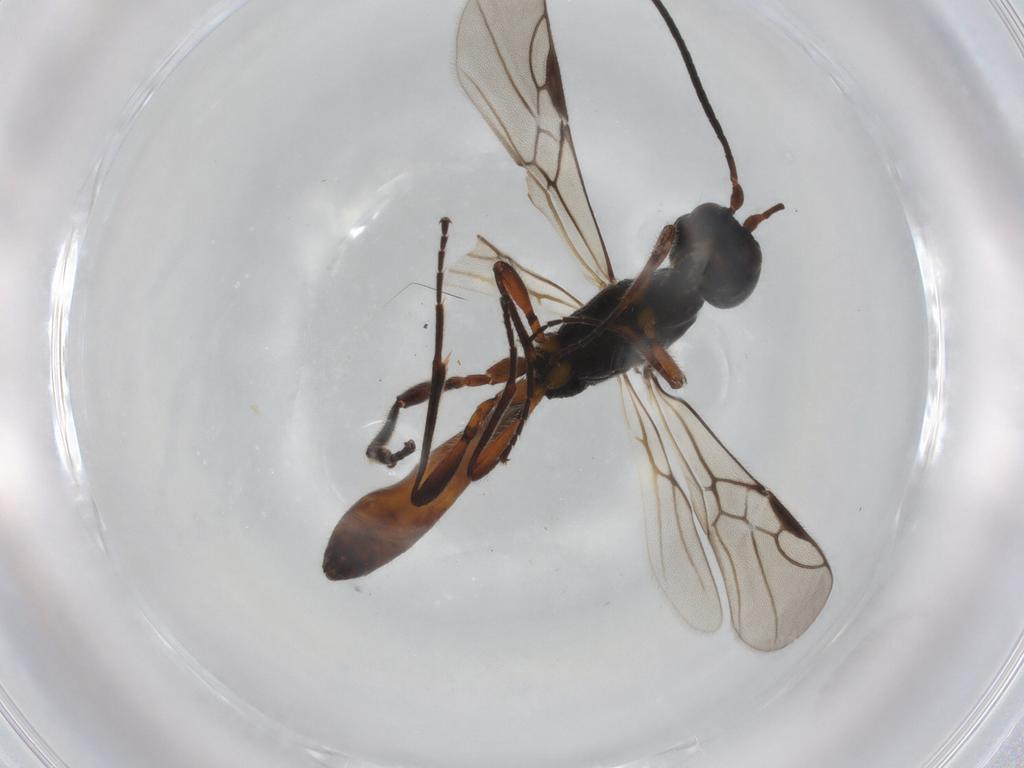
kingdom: Animalia
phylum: Arthropoda
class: Insecta
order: Hymenoptera
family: Braconidae
